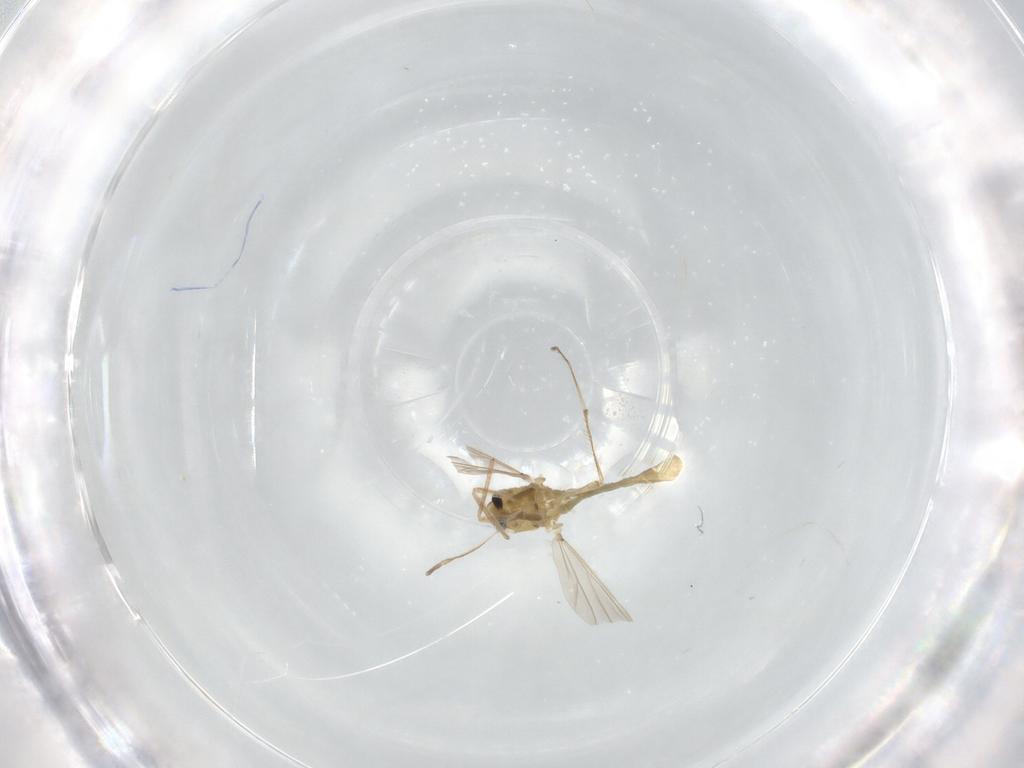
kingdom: Animalia
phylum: Arthropoda
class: Insecta
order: Diptera
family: Chironomidae
